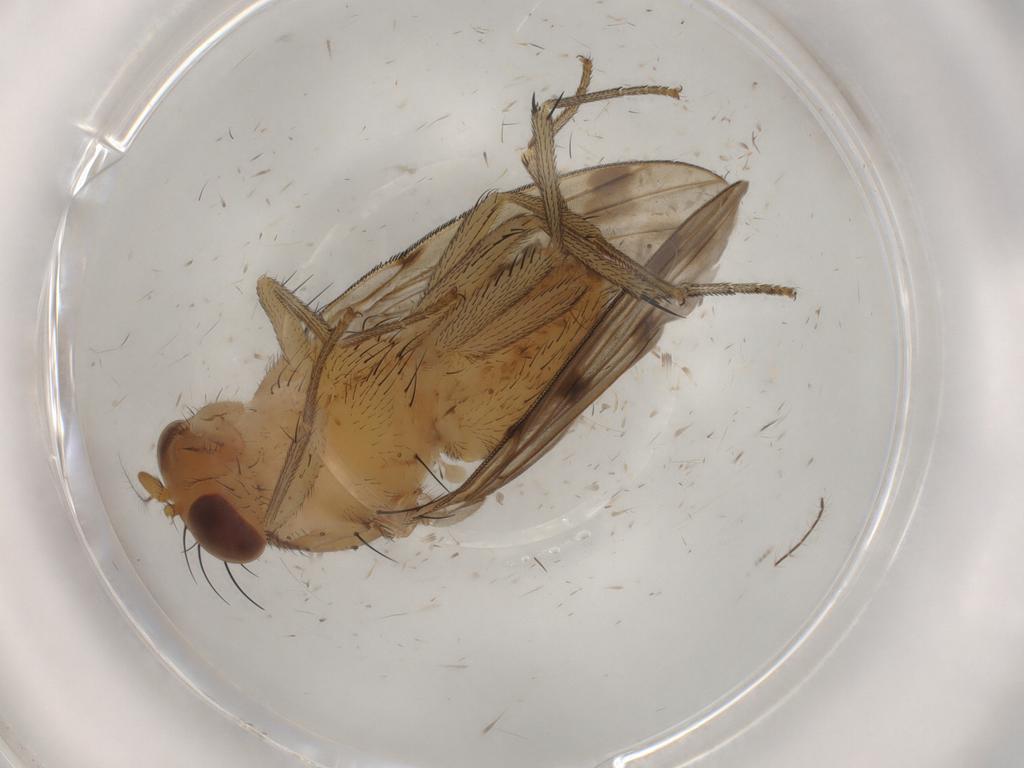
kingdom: Animalia
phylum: Arthropoda
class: Insecta
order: Diptera
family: Drosophilidae
